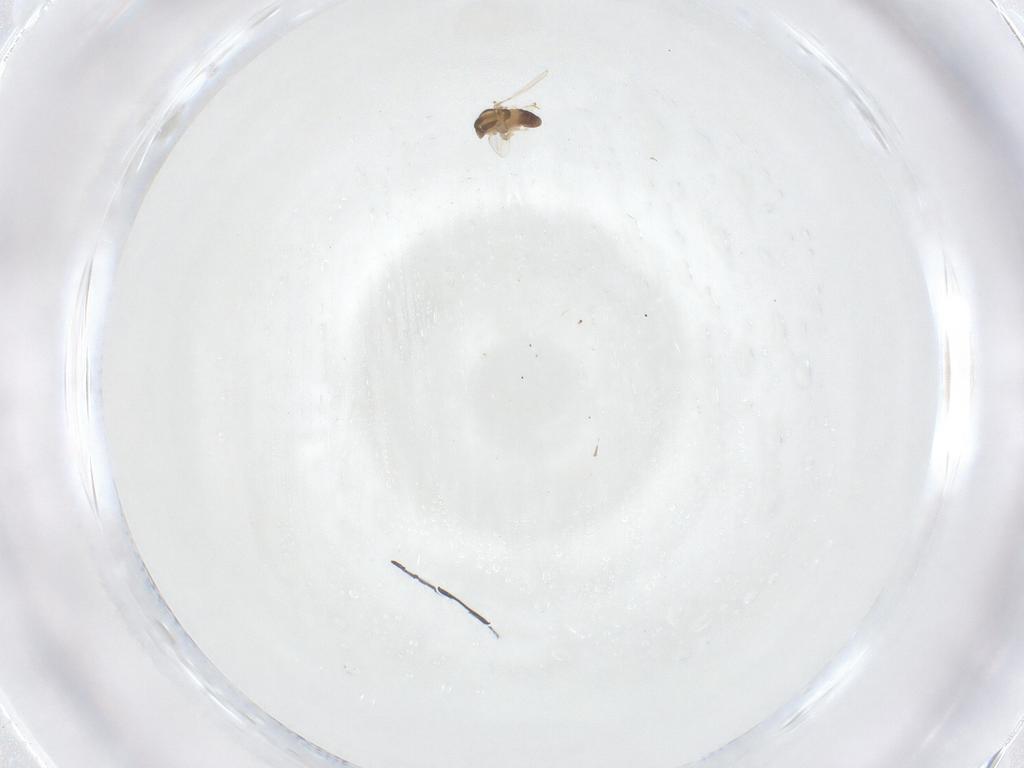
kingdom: Animalia
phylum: Arthropoda
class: Insecta
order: Diptera
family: Chironomidae
